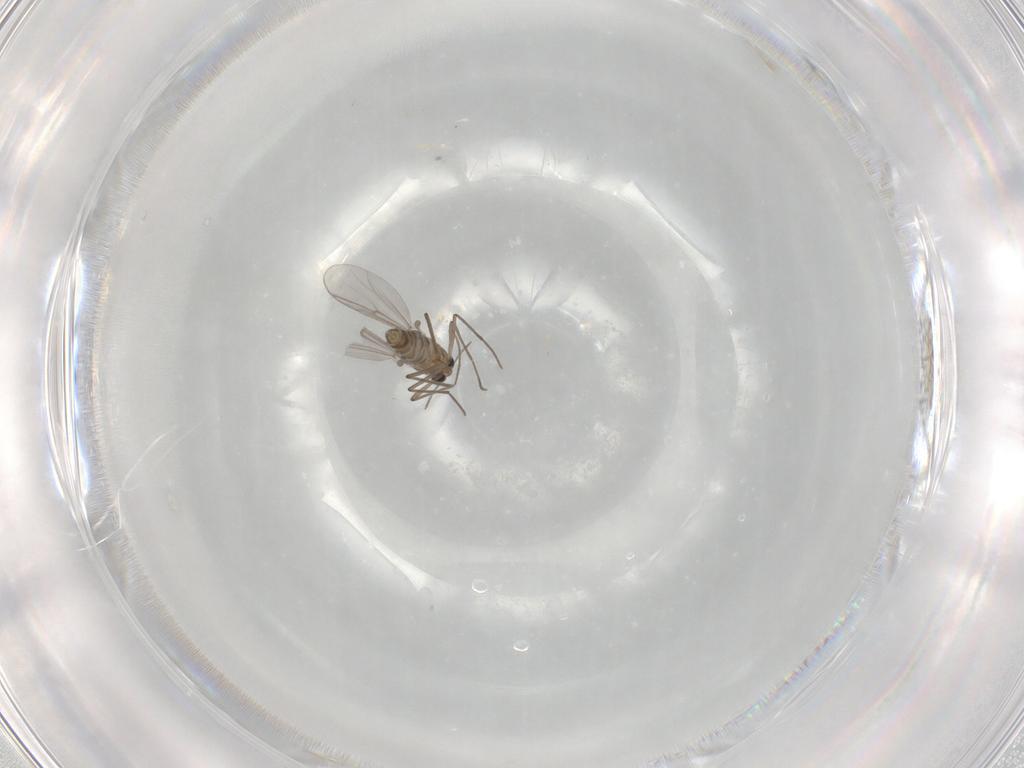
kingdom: Animalia
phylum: Arthropoda
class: Insecta
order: Diptera
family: Chironomidae
